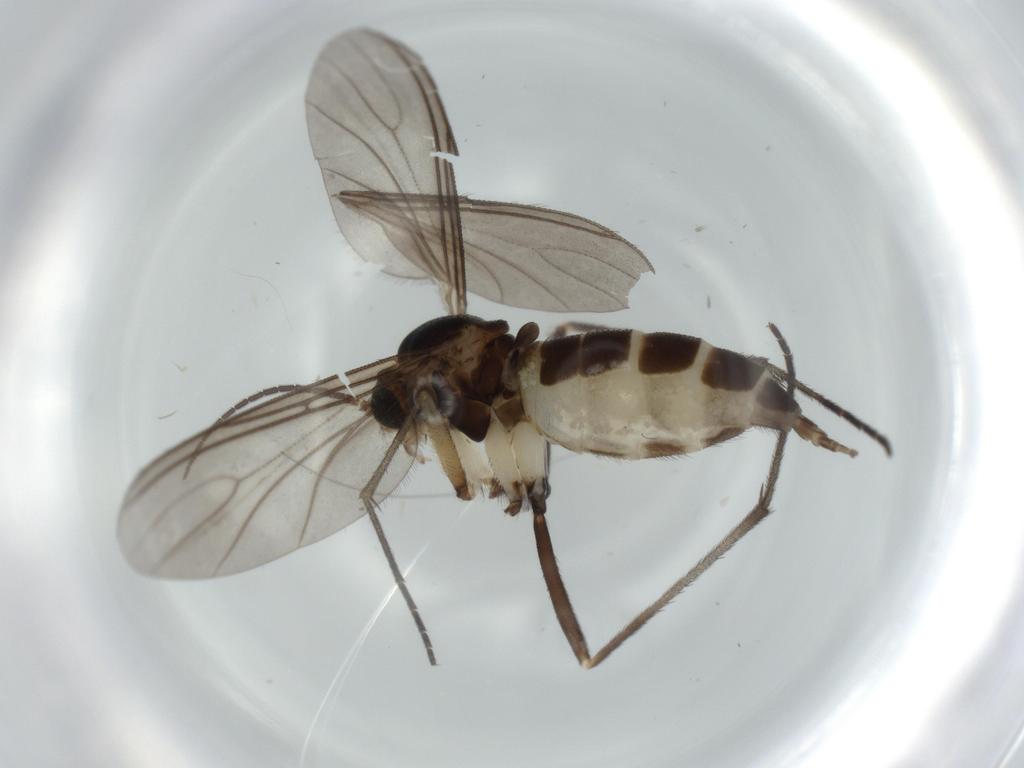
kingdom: Animalia
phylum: Arthropoda
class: Insecta
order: Diptera
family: Sciaridae
